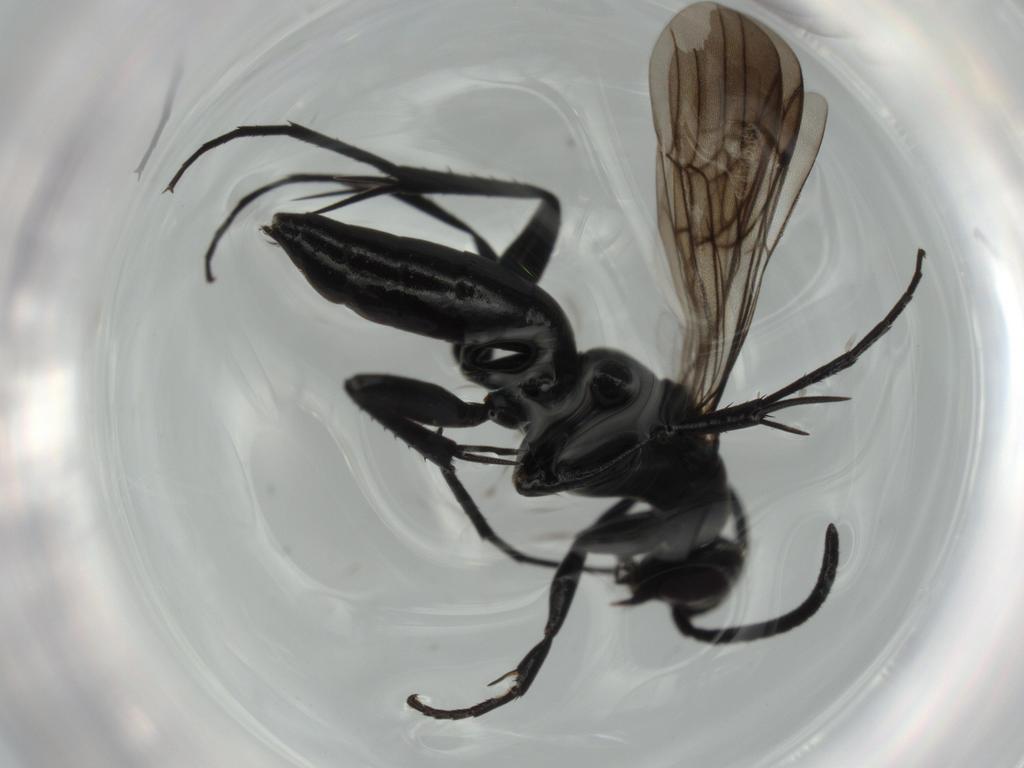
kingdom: Animalia
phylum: Arthropoda
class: Insecta
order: Hymenoptera
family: Pompilidae
